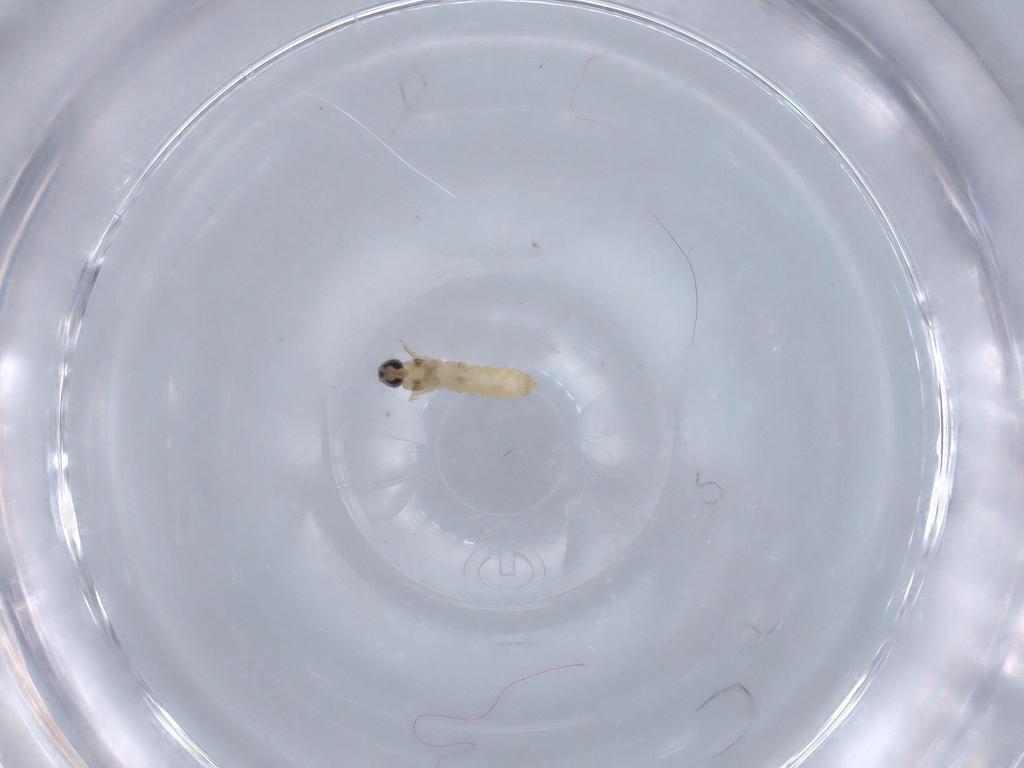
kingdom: Animalia
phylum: Arthropoda
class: Insecta
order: Diptera
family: Cecidomyiidae
